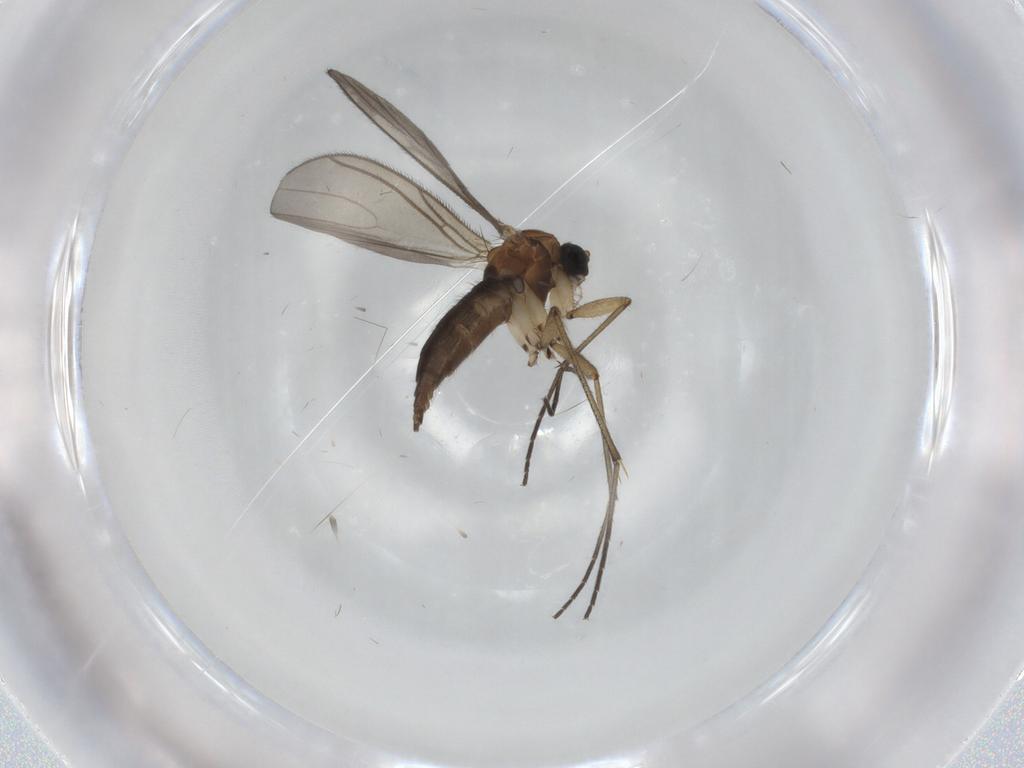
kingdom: Animalia
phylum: Arthropoda
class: Insecta
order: Diptera
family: Sciaridae
